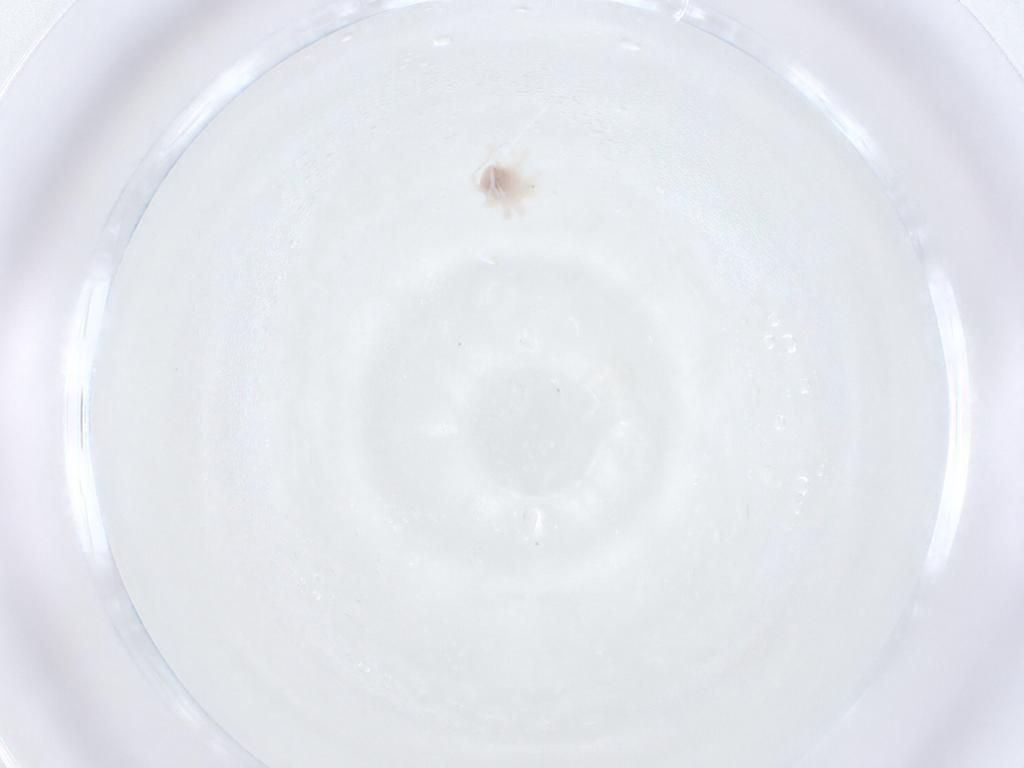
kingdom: Animalia
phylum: Arthropoda
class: Arachnida
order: Trombidiformes
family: Anystidae
